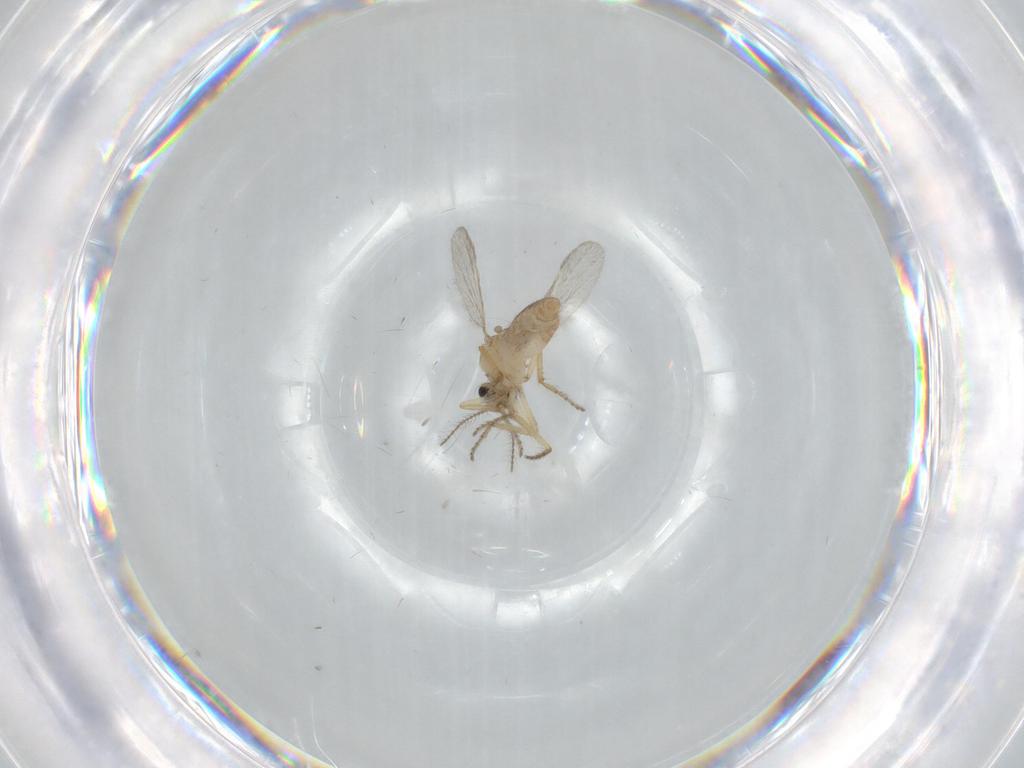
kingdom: Animalia
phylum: Arthropoda
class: Insecta
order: Diptera
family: Ceratopogonidae
